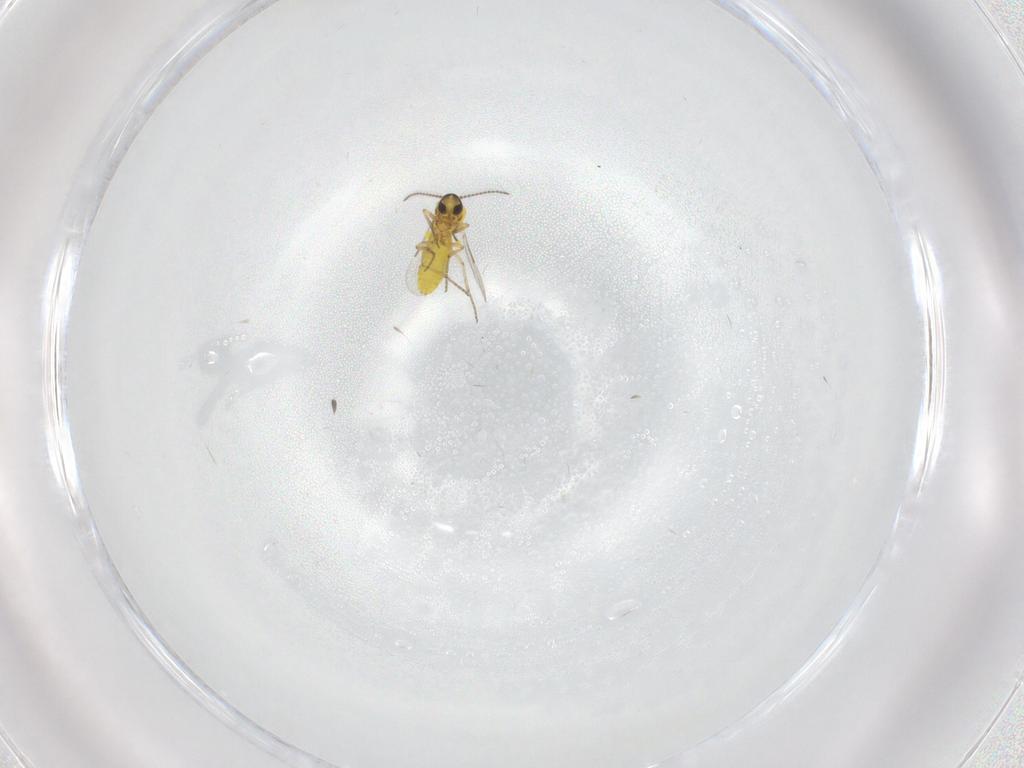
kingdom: Animalia
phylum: Arthropoda
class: Insecta
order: Diptera
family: Ceratopogonidae
